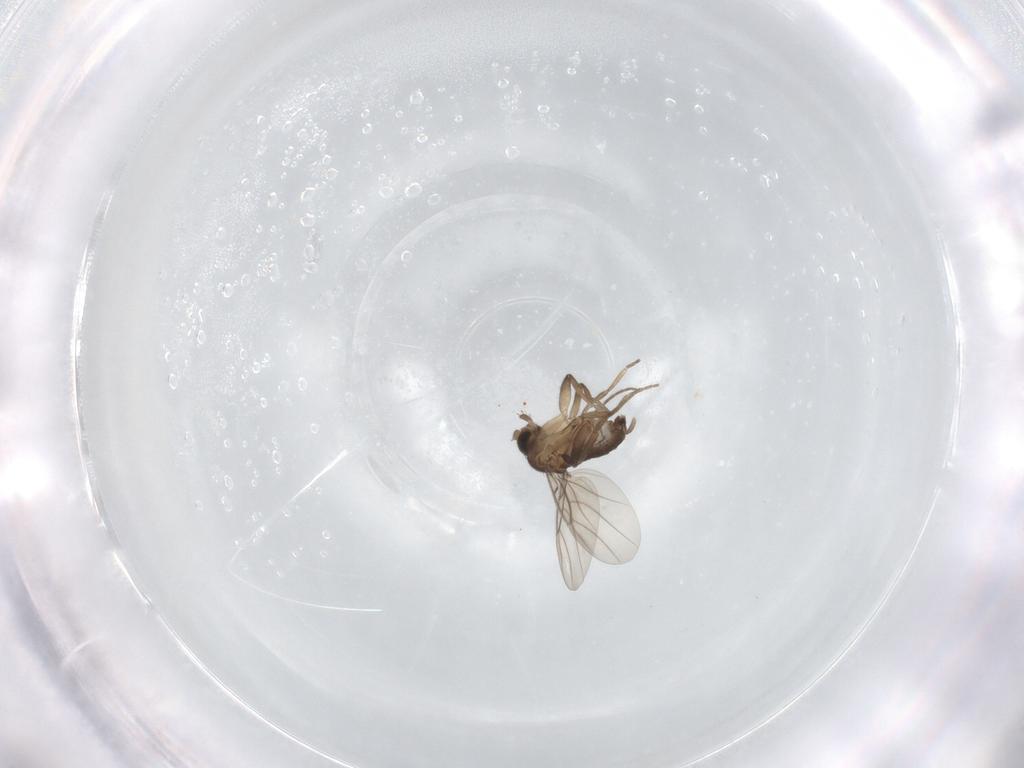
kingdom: Animalia
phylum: Arthropoda
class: Insecta
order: Diptera
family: Phoridae
